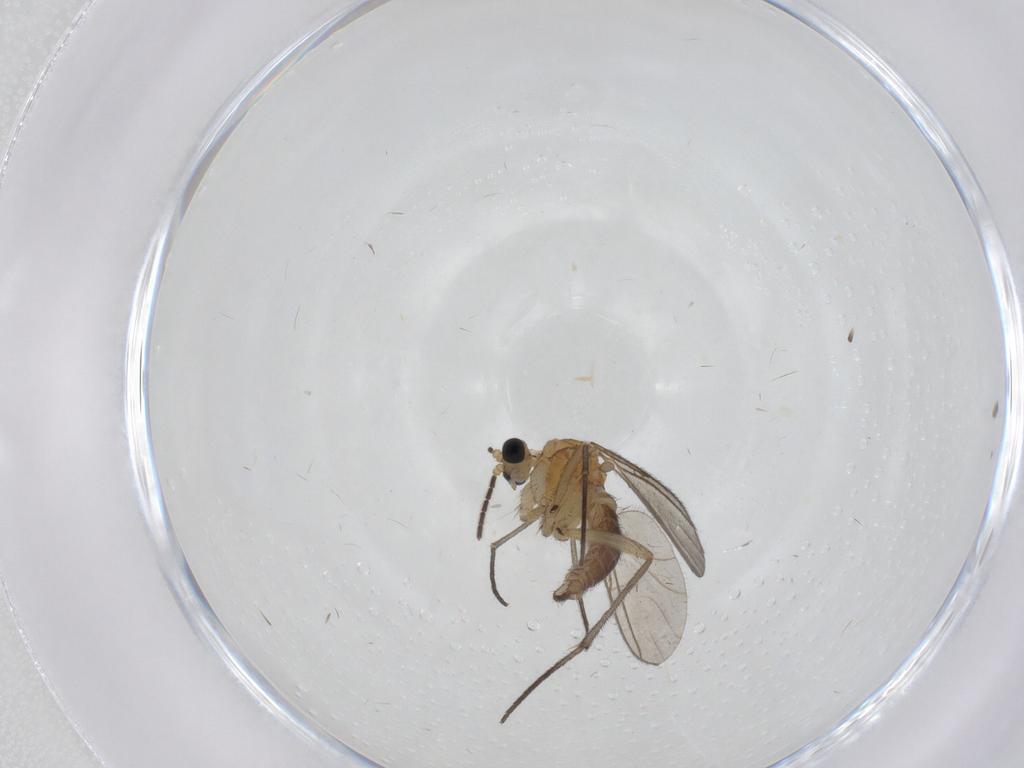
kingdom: Animalia
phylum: Arthropoda
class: Insecta
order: Diptera
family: Sciaridae
